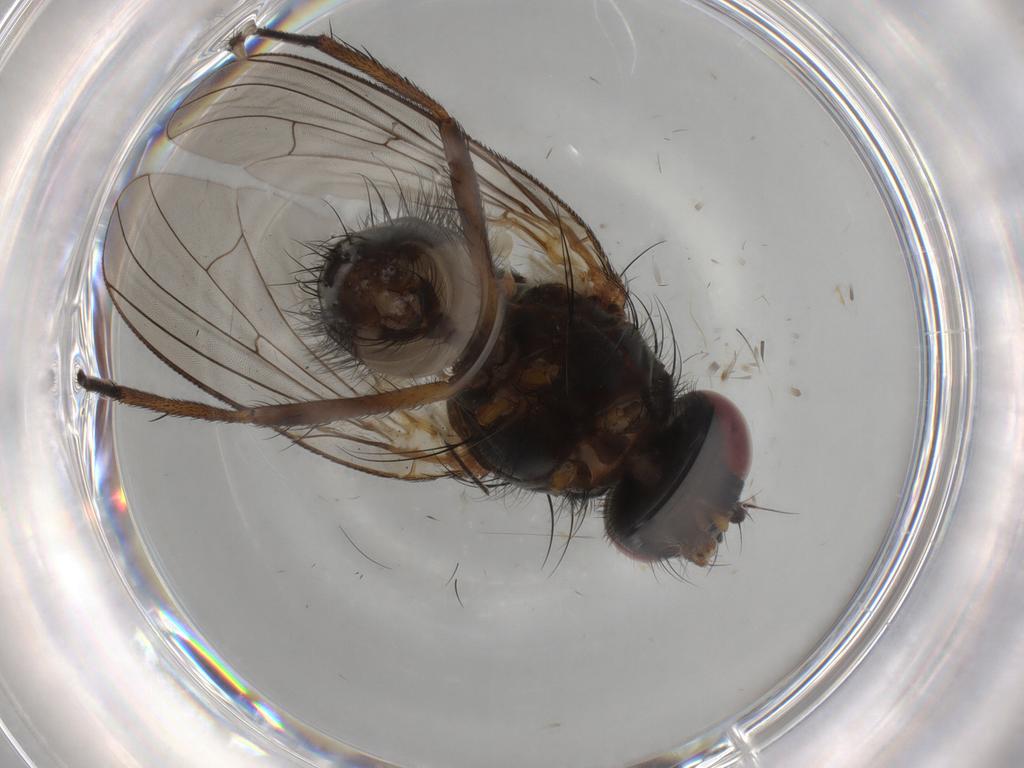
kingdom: Animalia
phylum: Arthropoda
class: Insecta
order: Diptera
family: Anthomyiidae
